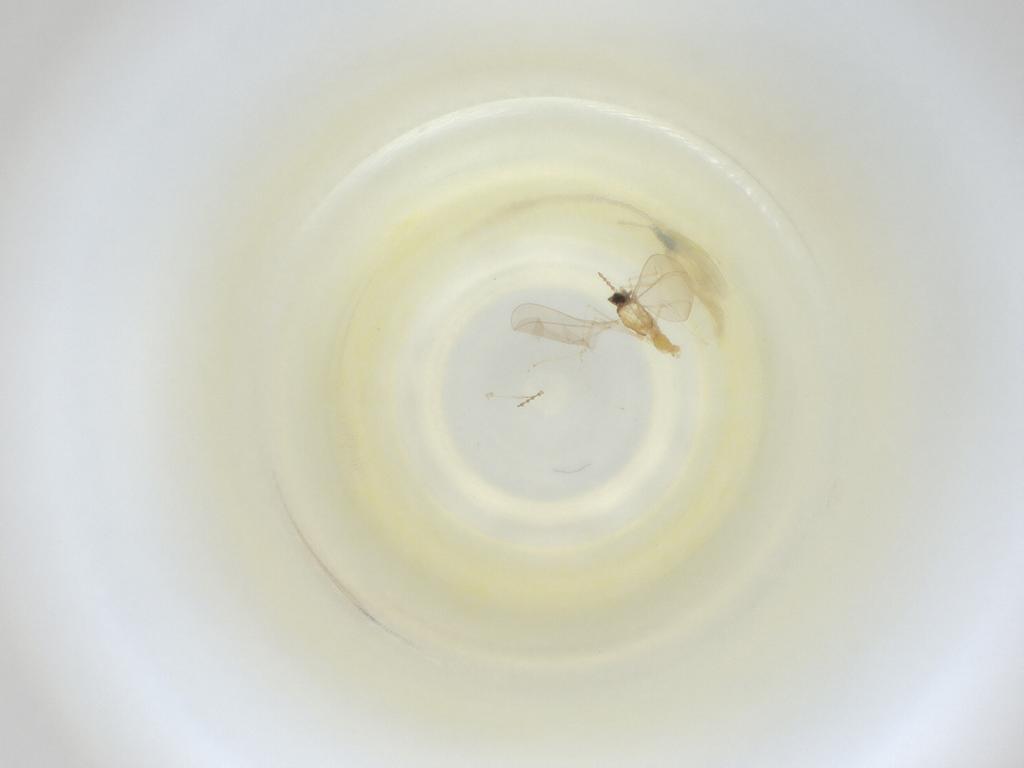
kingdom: Animalia
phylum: Arthropoda
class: Insecta
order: Diptera
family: Cecidomyiidae
